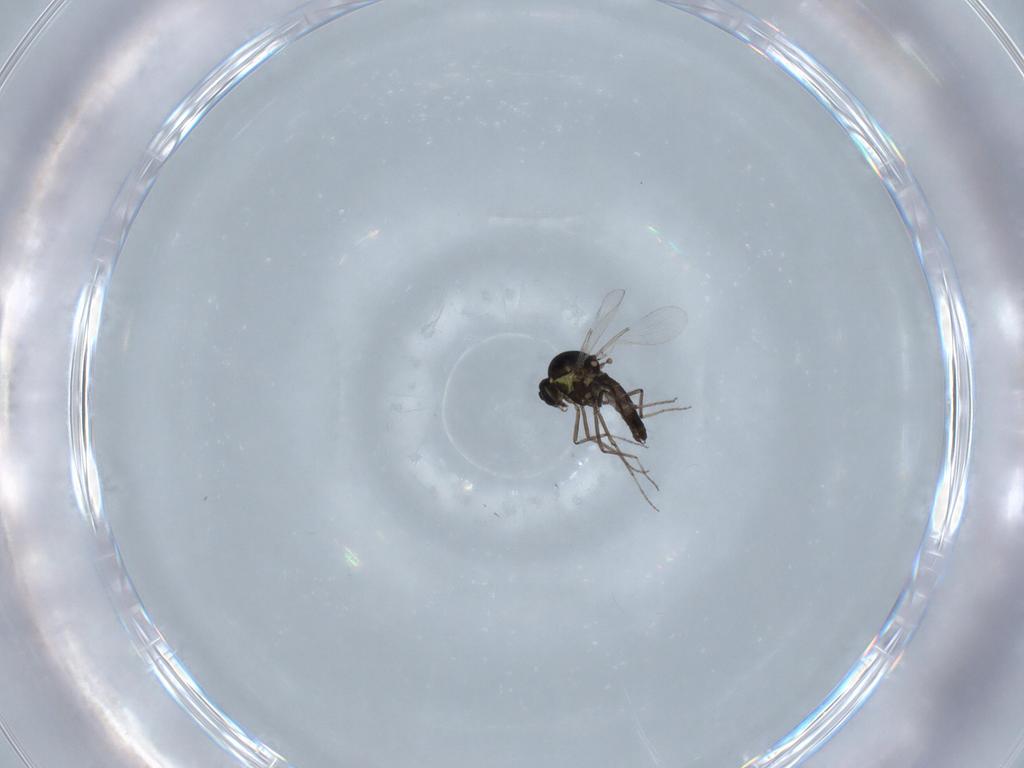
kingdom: Animalia
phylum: Arthropoda
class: Insecta
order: Diptera
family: Ceratopogonidae
